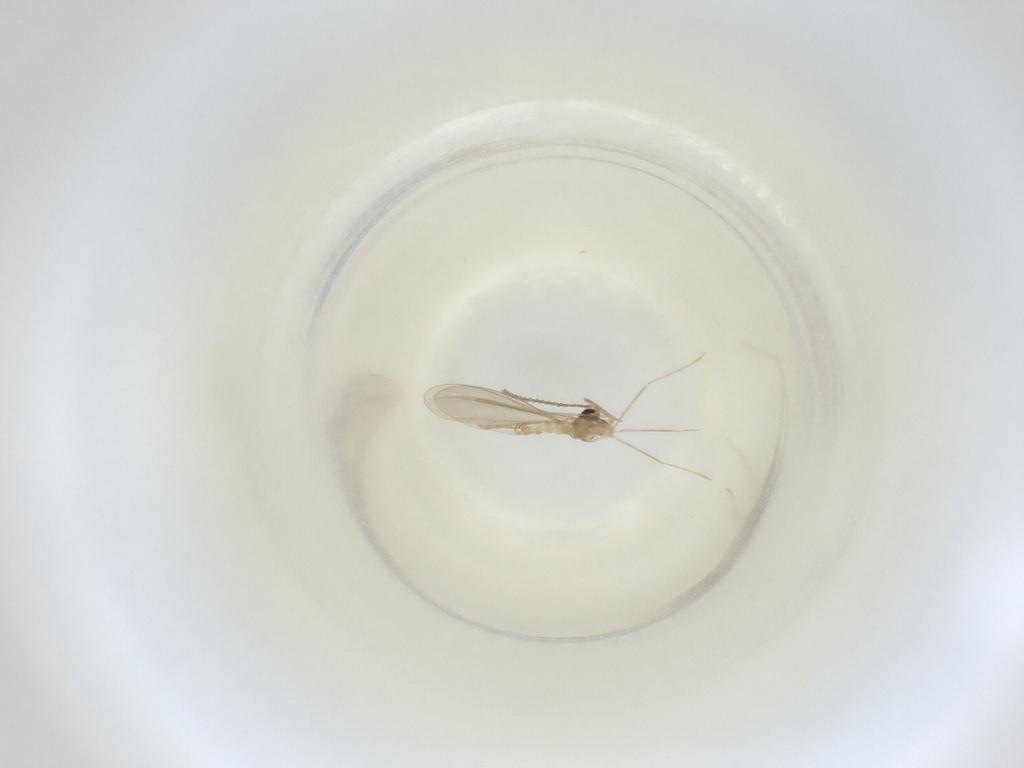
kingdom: Animalia
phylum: Arthropoda
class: Insecta
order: Diptera
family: Cecidomyiidae
